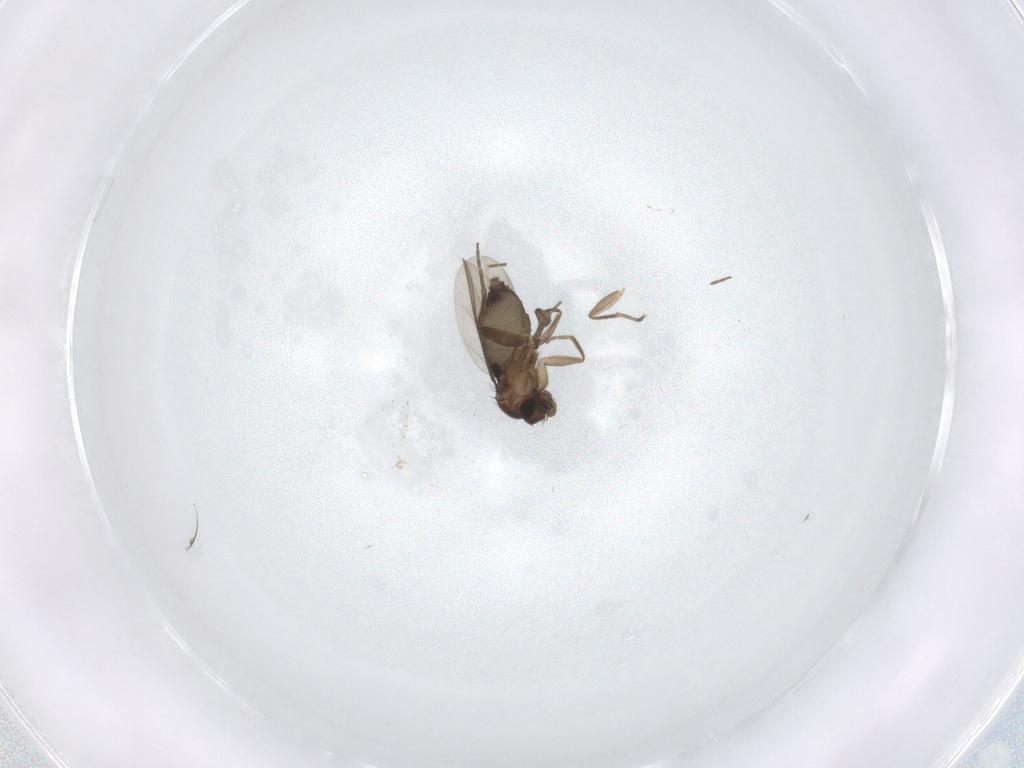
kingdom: Animalia
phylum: Arthropoda
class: Insecta
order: Diptera
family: Phoridae
